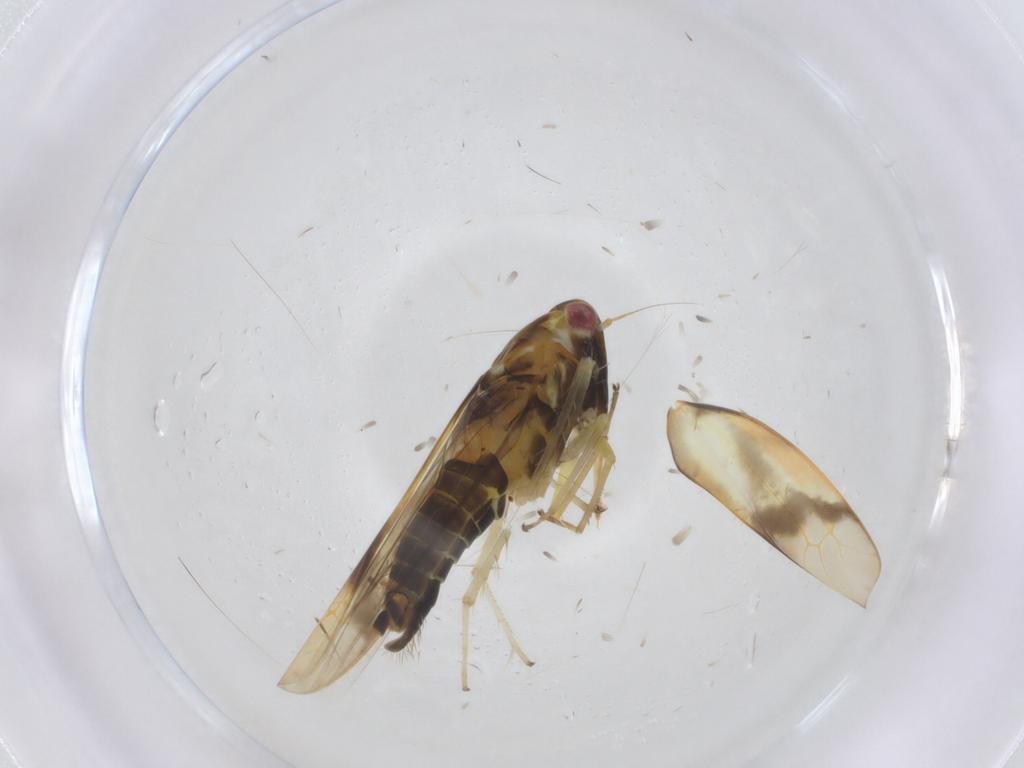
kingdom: Animalia
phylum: Arthropoda
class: Insecta
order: Hemiptera
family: Cicadellidae
